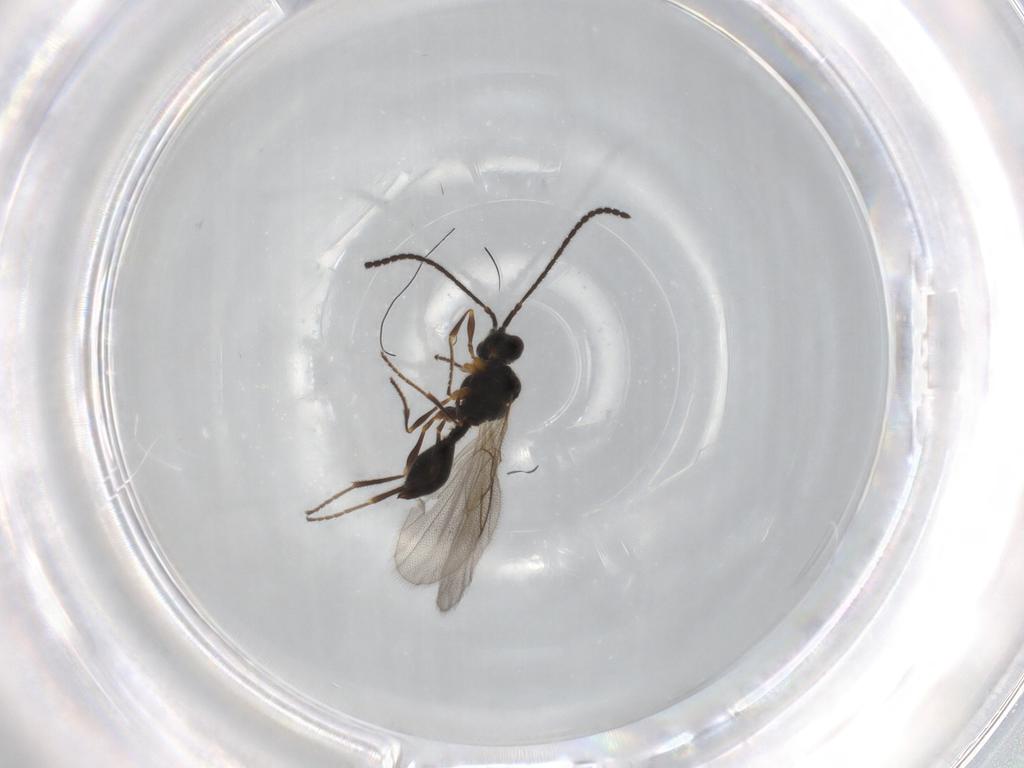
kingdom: Animalia
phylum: Arthropoda
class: Insecta
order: Hymenoptera
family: Diapriidae
